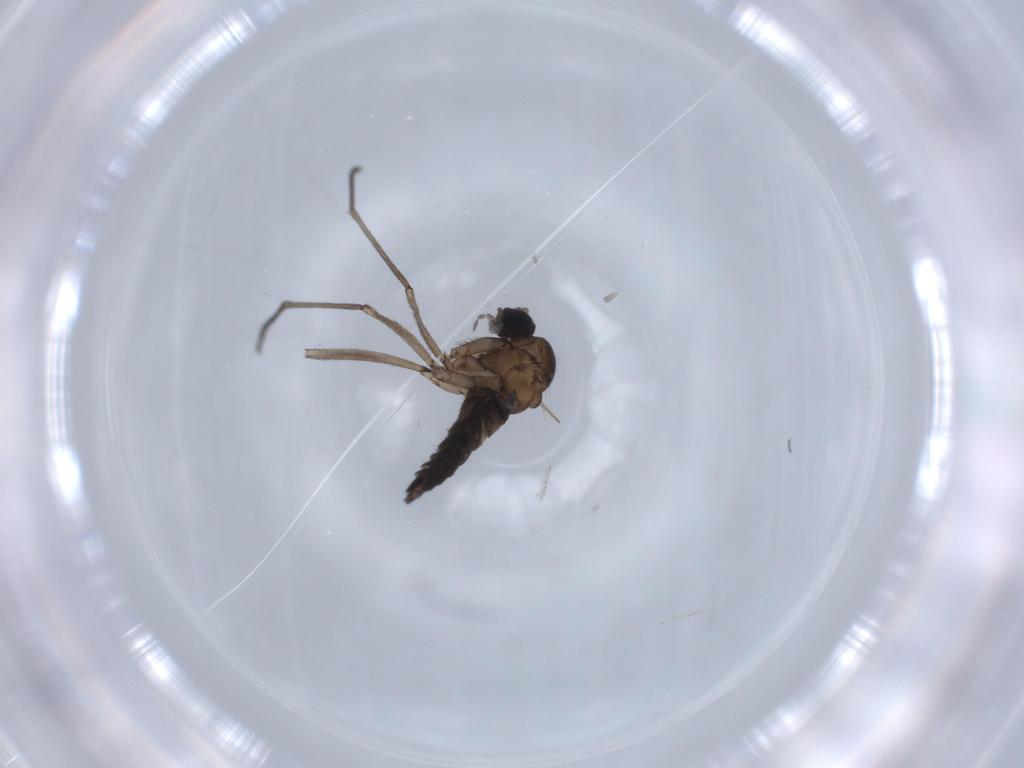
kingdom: Animalia
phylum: Arthropoda
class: Insecta
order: Diptera
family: Sciaridae
